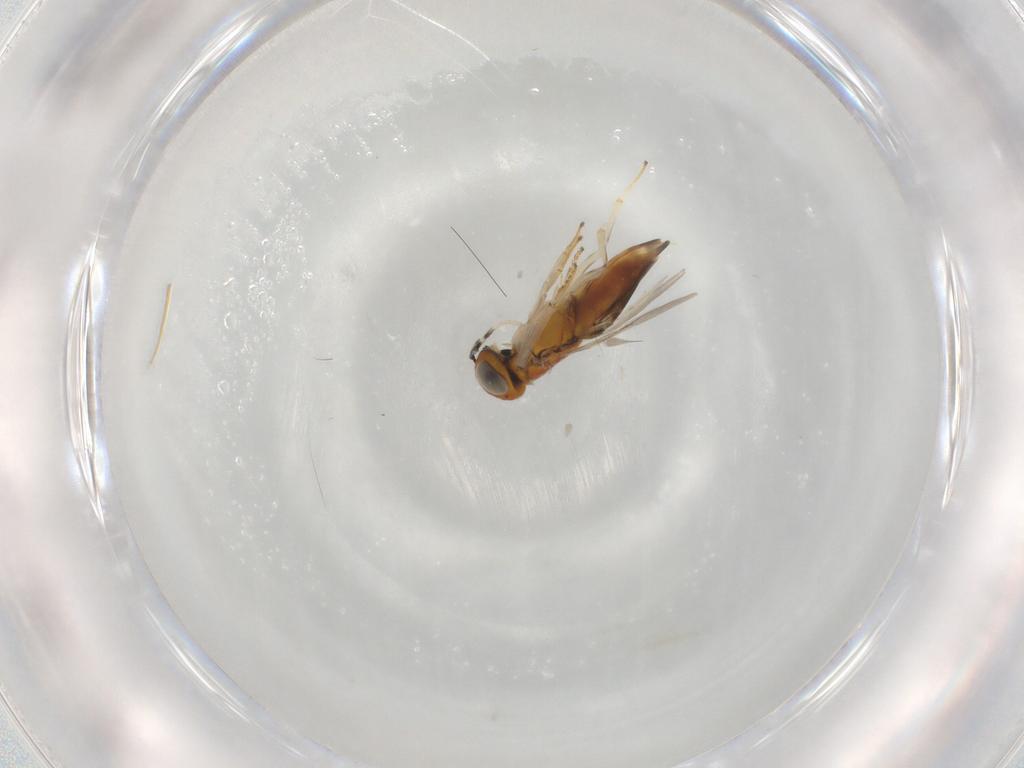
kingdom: Animalia
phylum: Arthropoda
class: Insecta
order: Hymenoptera
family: Encyrtidae
